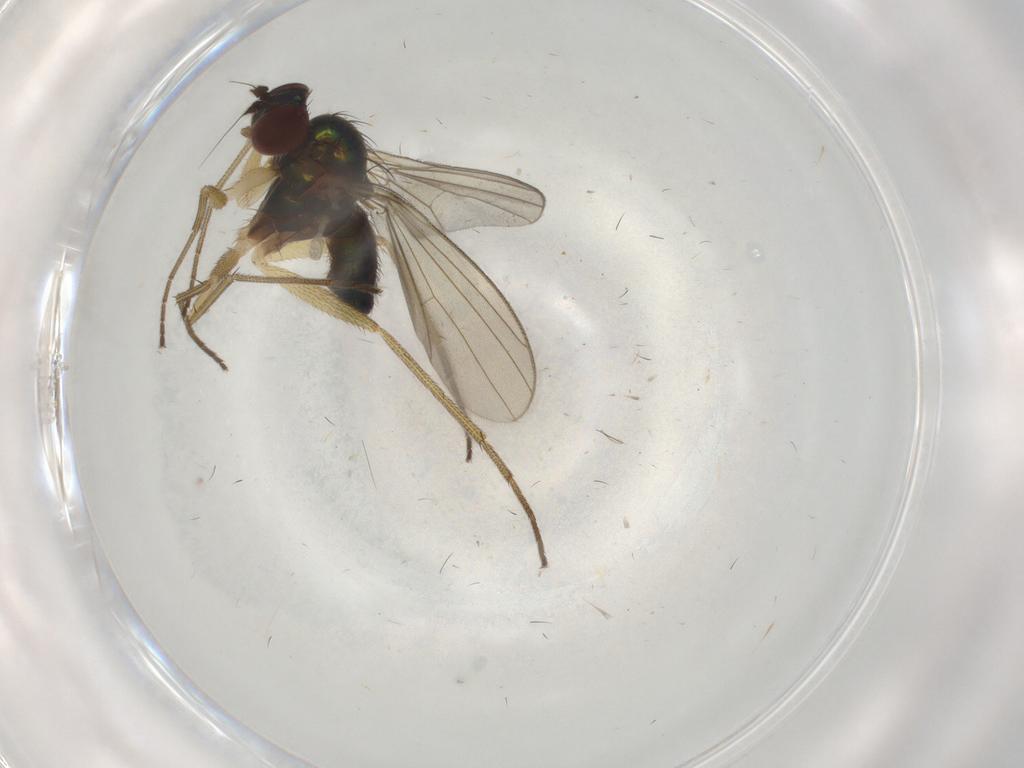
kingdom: Animalia
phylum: Arthropoda
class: Insecta
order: Diptera
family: Dolichopodidae
